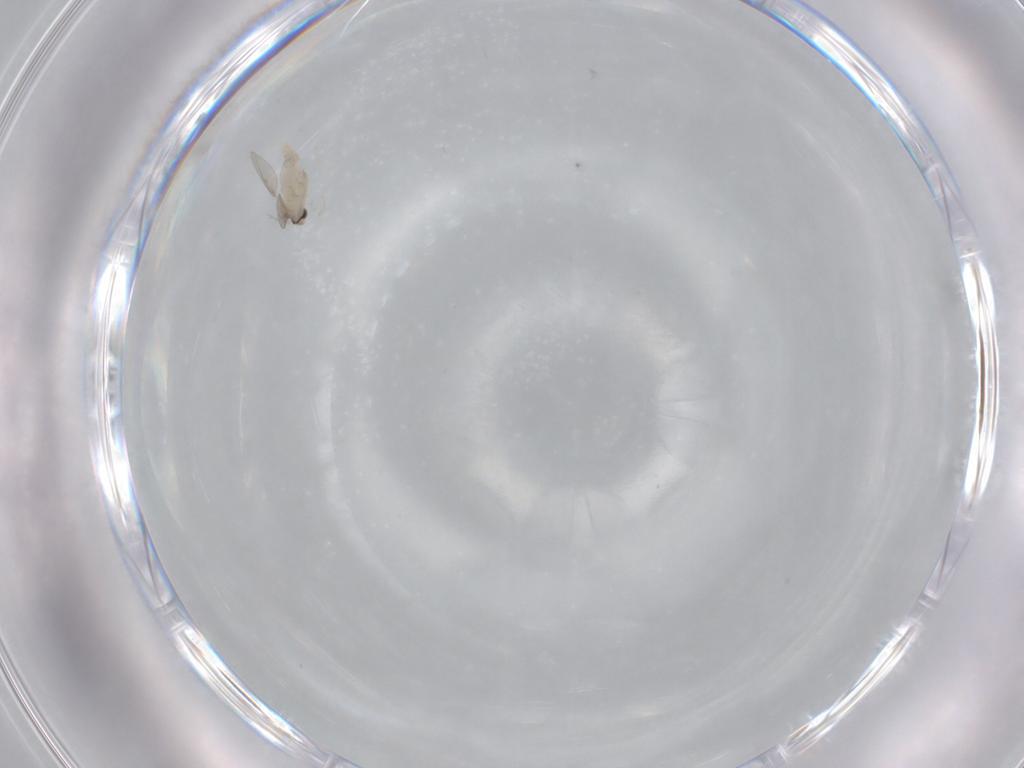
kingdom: Animalia
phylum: Arthropoda
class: Insecta
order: Diptera
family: Cecidomyiidae
